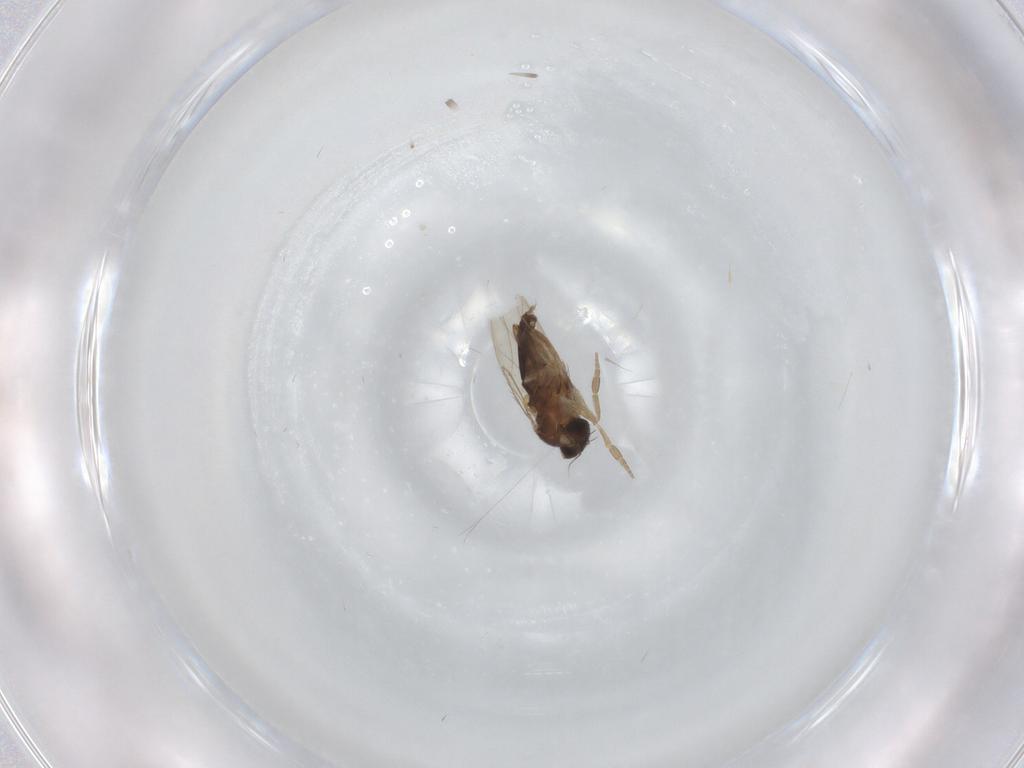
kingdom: Animalia
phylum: Arthropoda
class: Insecta
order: Diptera
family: Phoridae
